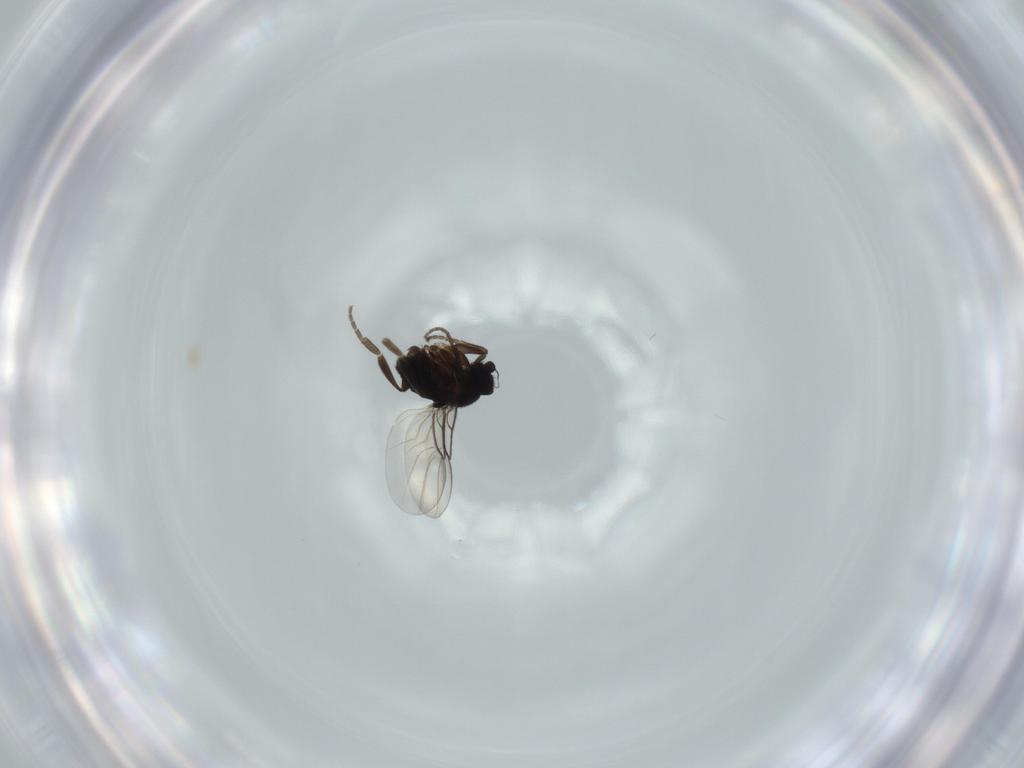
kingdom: Animalia
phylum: Arthropoda
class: Insecta
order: Diptera
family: Phoridae
